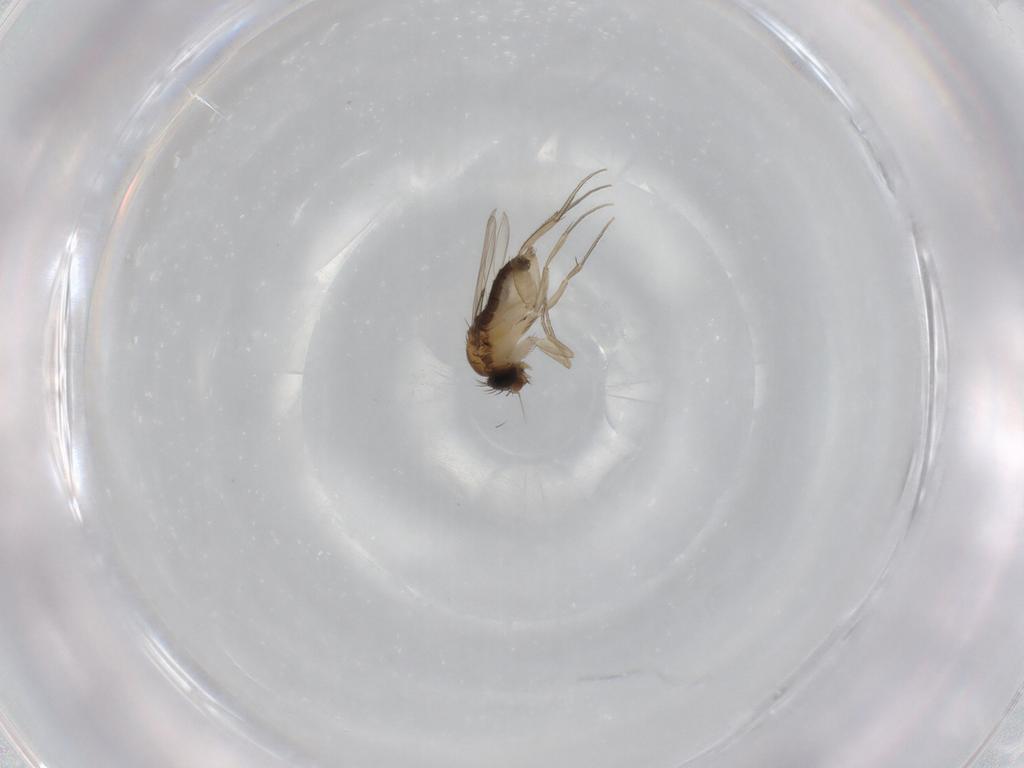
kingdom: Animalia
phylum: Arthropoda
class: Insecta
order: Diptera
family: Phoridae
